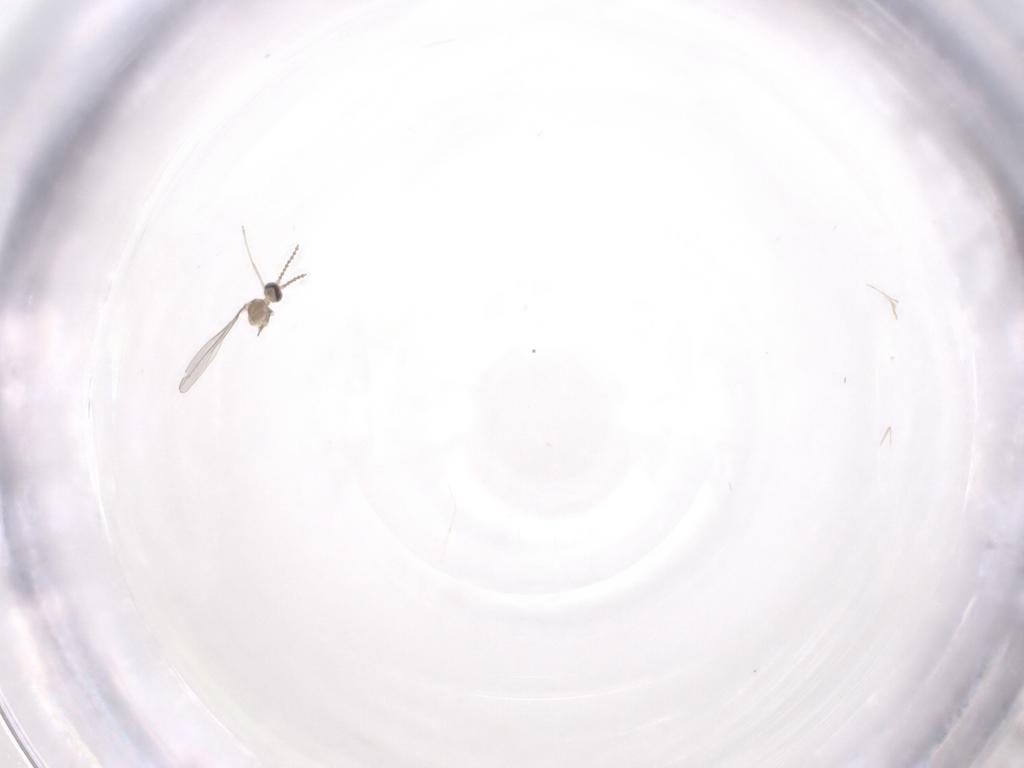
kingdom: Animalia
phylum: Arthropoda
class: Insecta
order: Diptera
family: Cecidomyiidae
